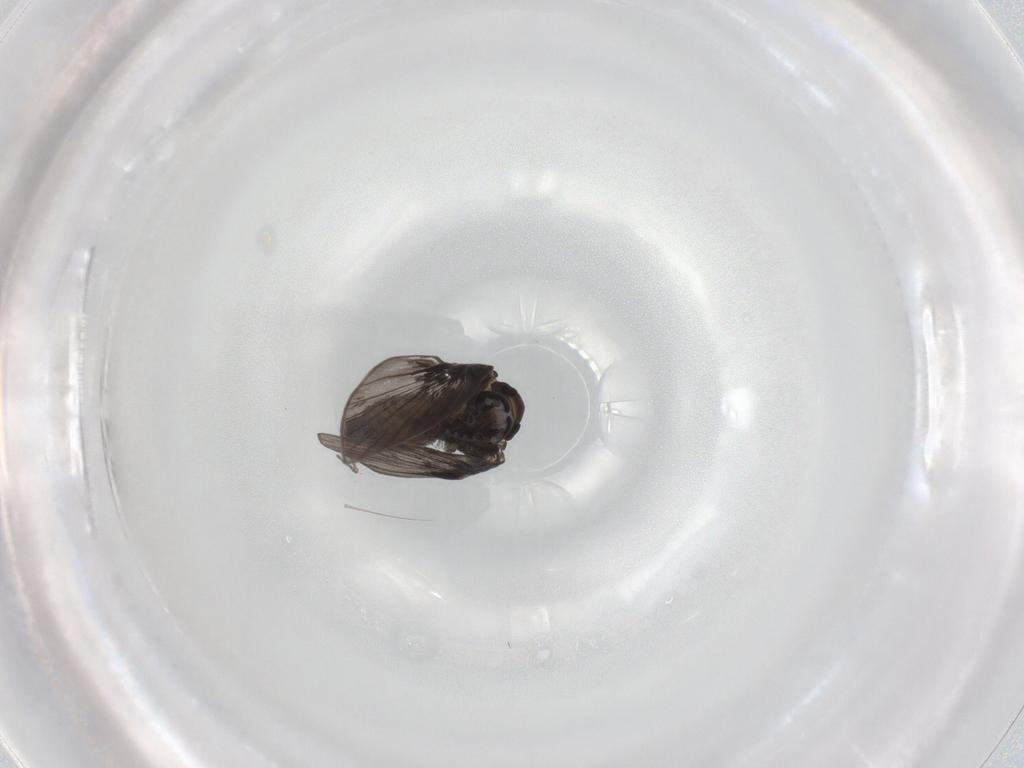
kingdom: Animalia
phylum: Arthropoda
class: Insecta
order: Diptera
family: Chironomidae
